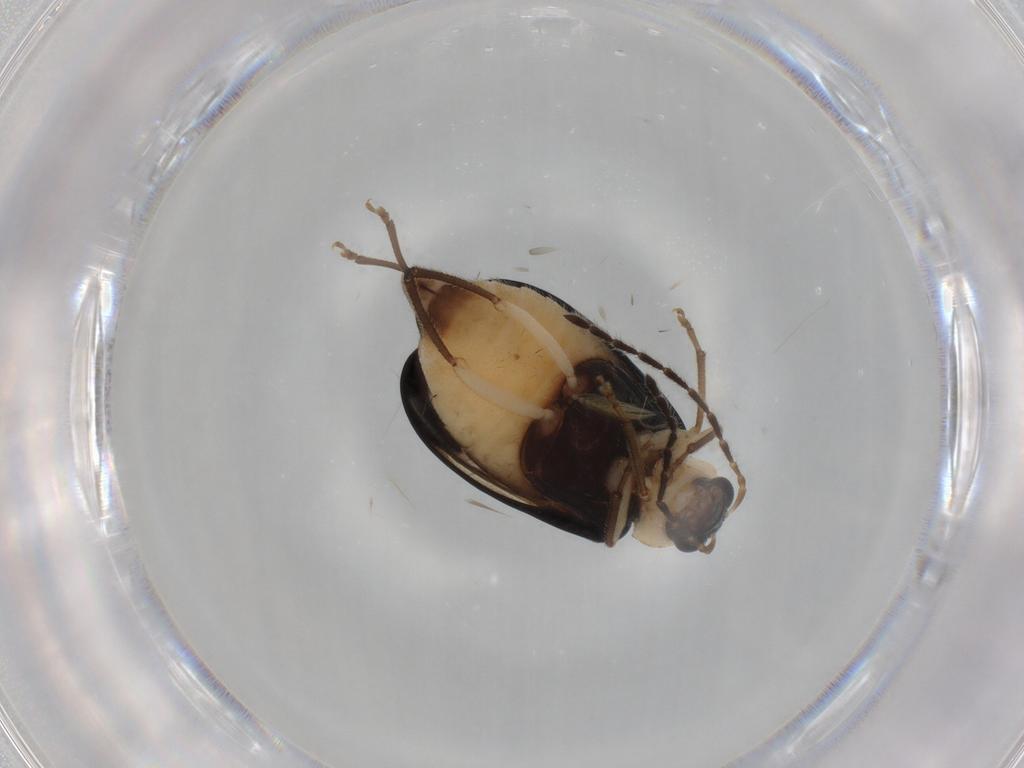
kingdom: Animalia
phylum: Arthropoda
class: Insecta
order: Coleoptera
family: Chrysomelidae
